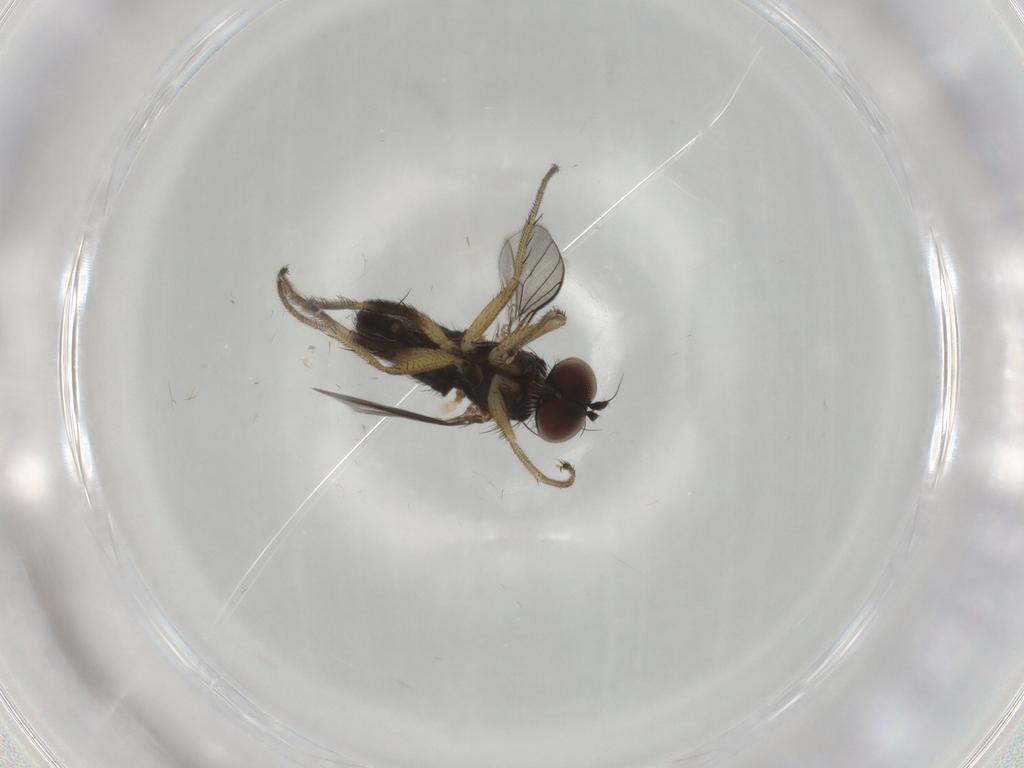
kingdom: Animalia
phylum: Arthropoda
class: Insecta
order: Diptera
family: Dolichopodidae
